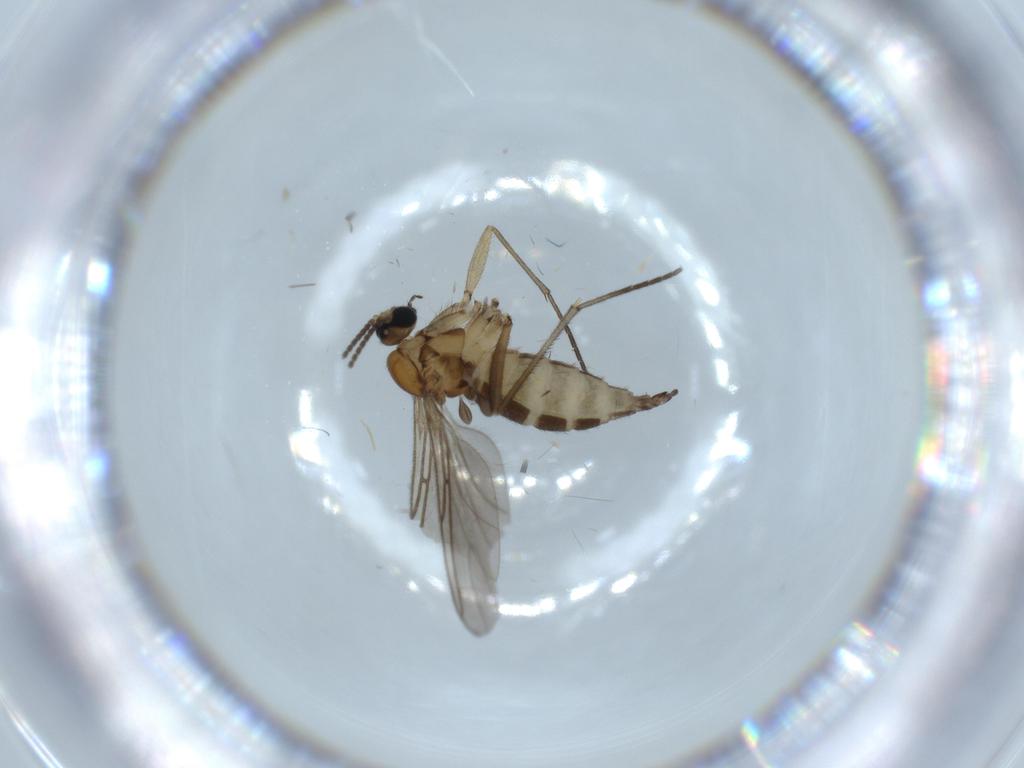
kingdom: Animalia
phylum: Arthropoda
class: Insecta
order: Diptera
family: Sciaridae
